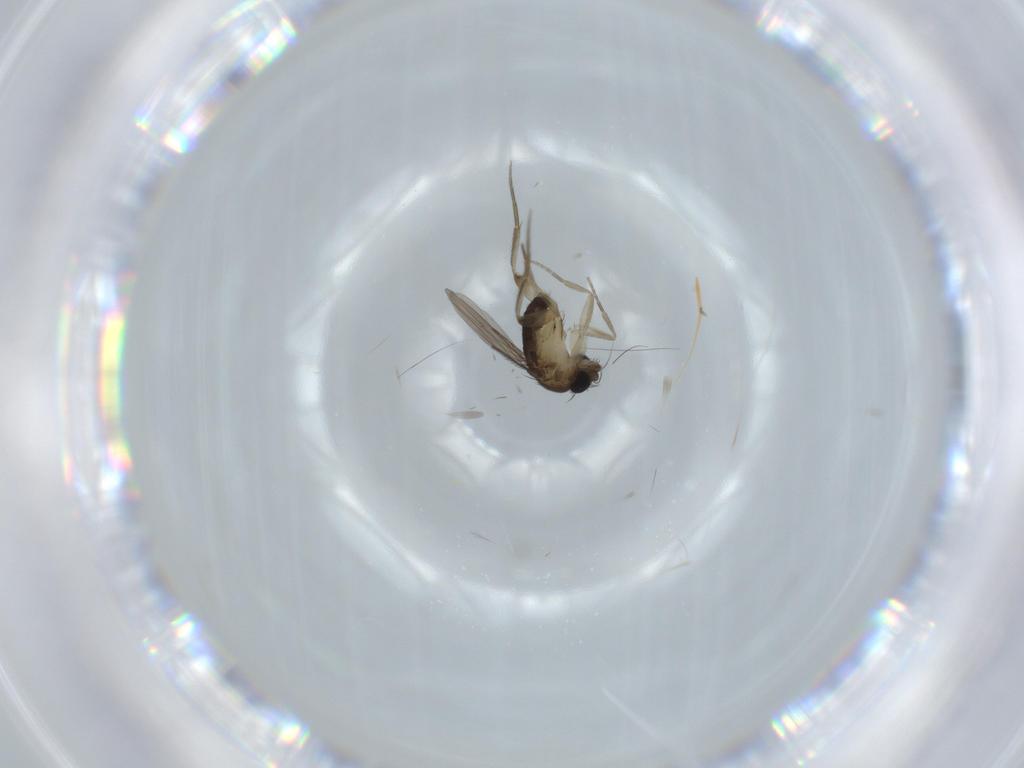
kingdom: Animalia
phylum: Arthropoda
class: Insecta
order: Diptera
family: Phoridae
